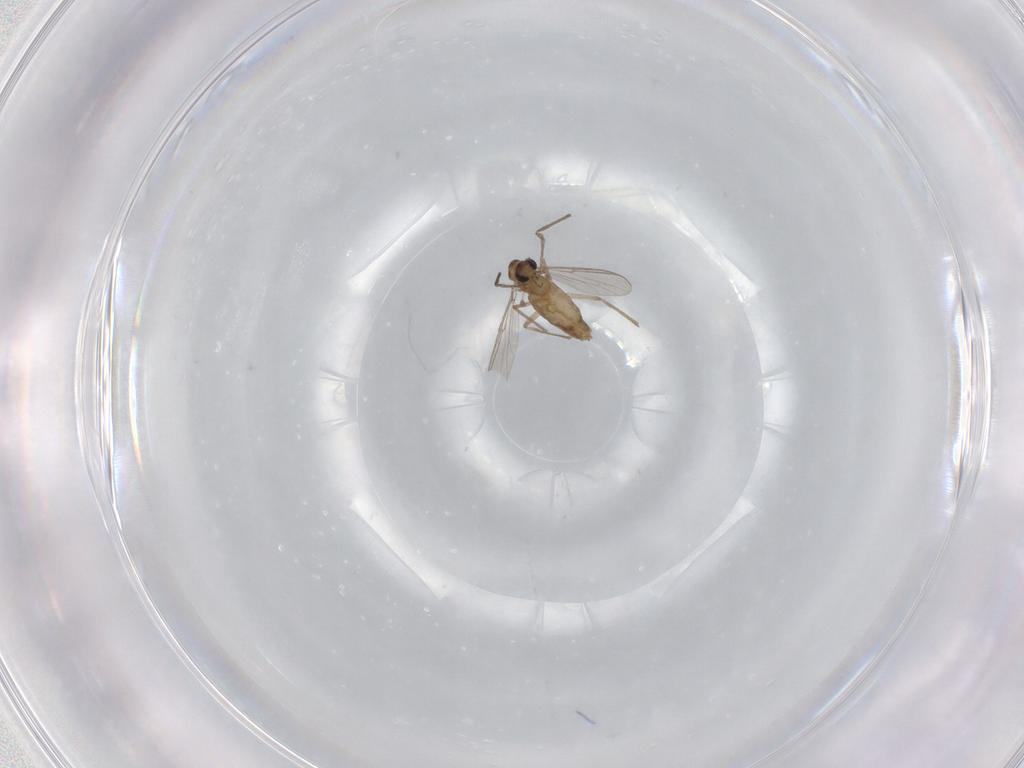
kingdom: Animalia
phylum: Arthropoda
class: Insecta
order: Diptera
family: Chironomidae
